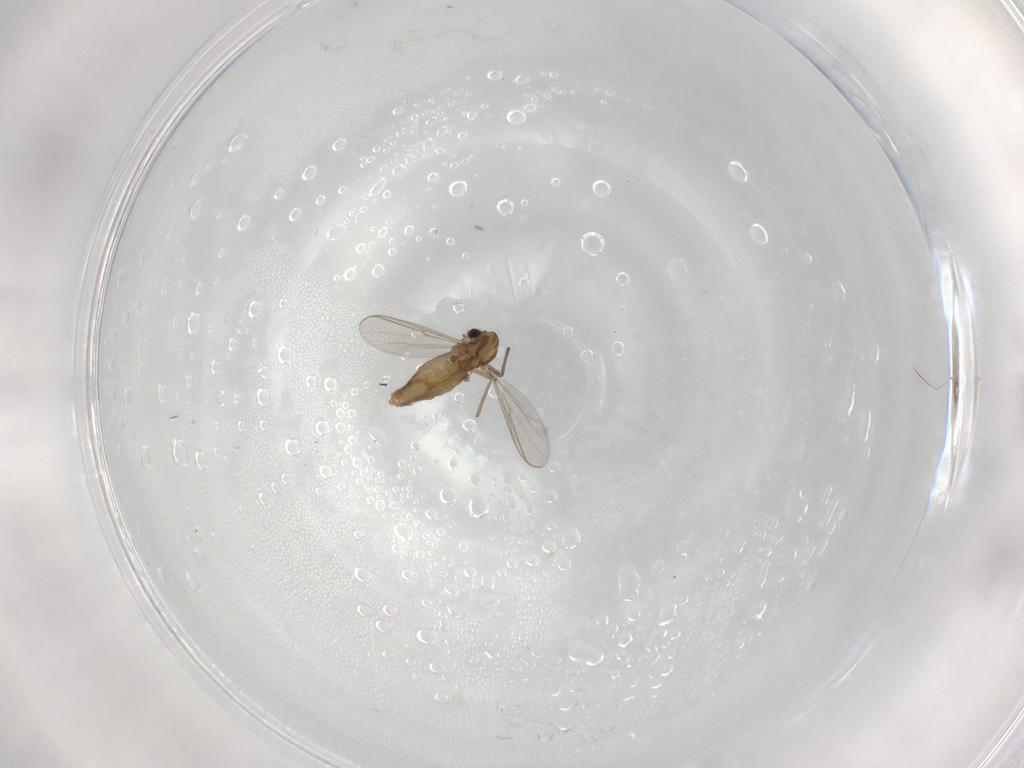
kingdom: Animalia
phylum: Arthropoda
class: Insecta
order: Diptera
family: Chironomidae
